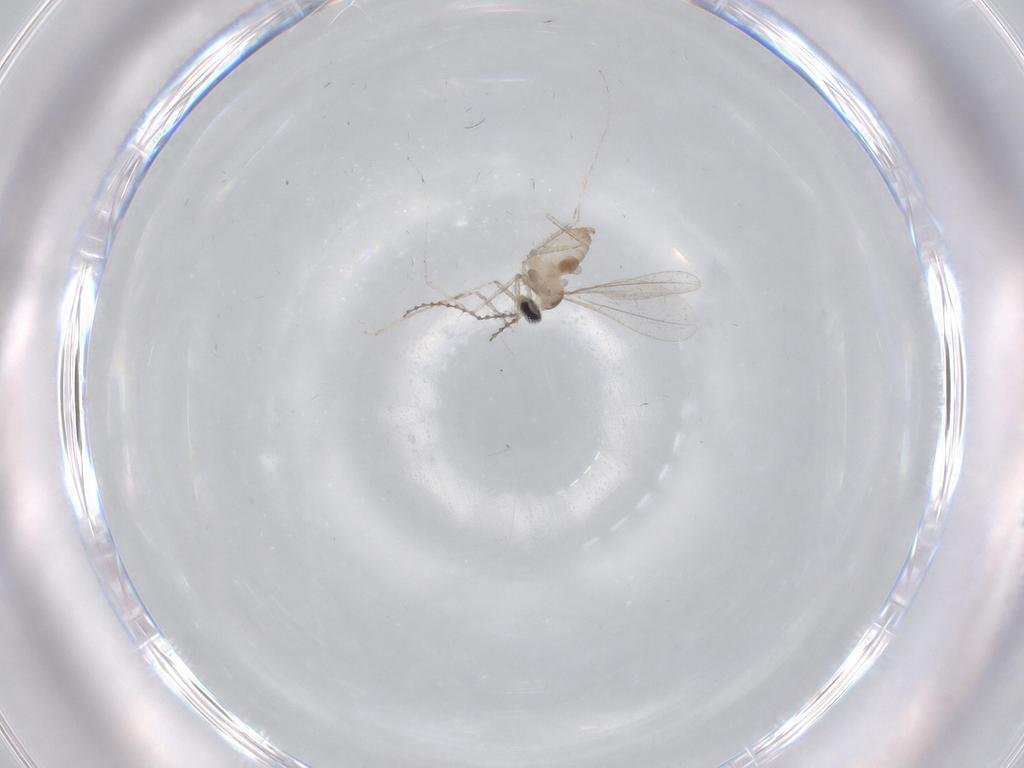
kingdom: Animalia
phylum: Arthropoda
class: Insecta
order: Diptera
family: Cecidomyiidae
